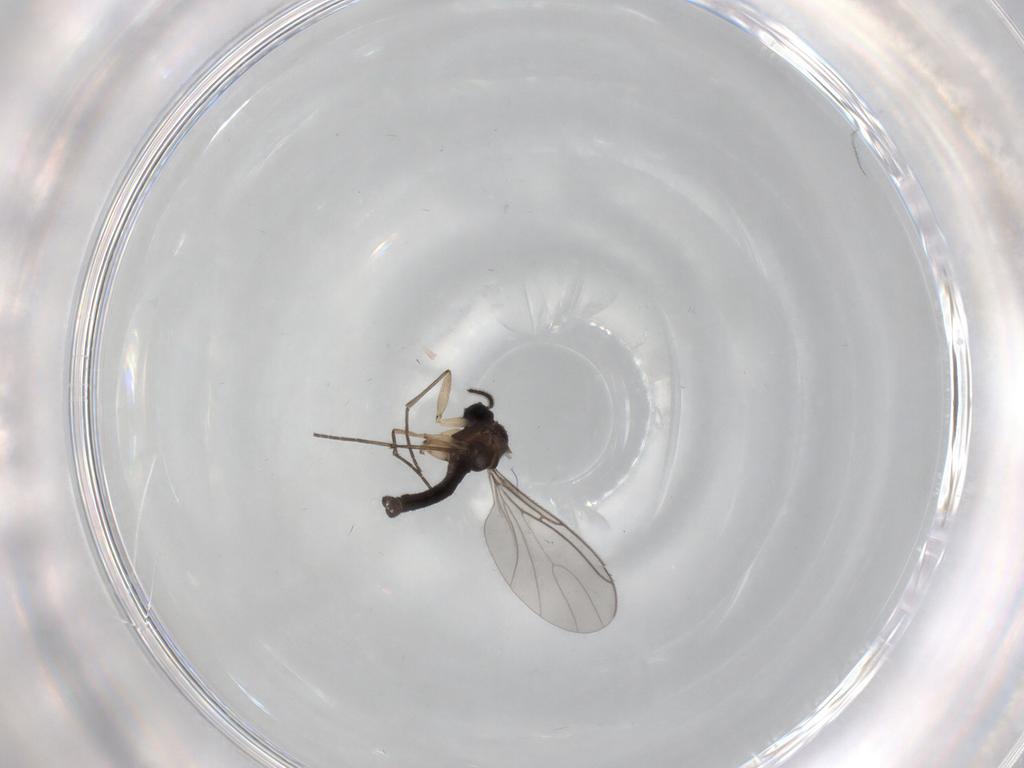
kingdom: Animalia
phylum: Arthropoda
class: Insecta
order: Diptera
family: Sciaridae
